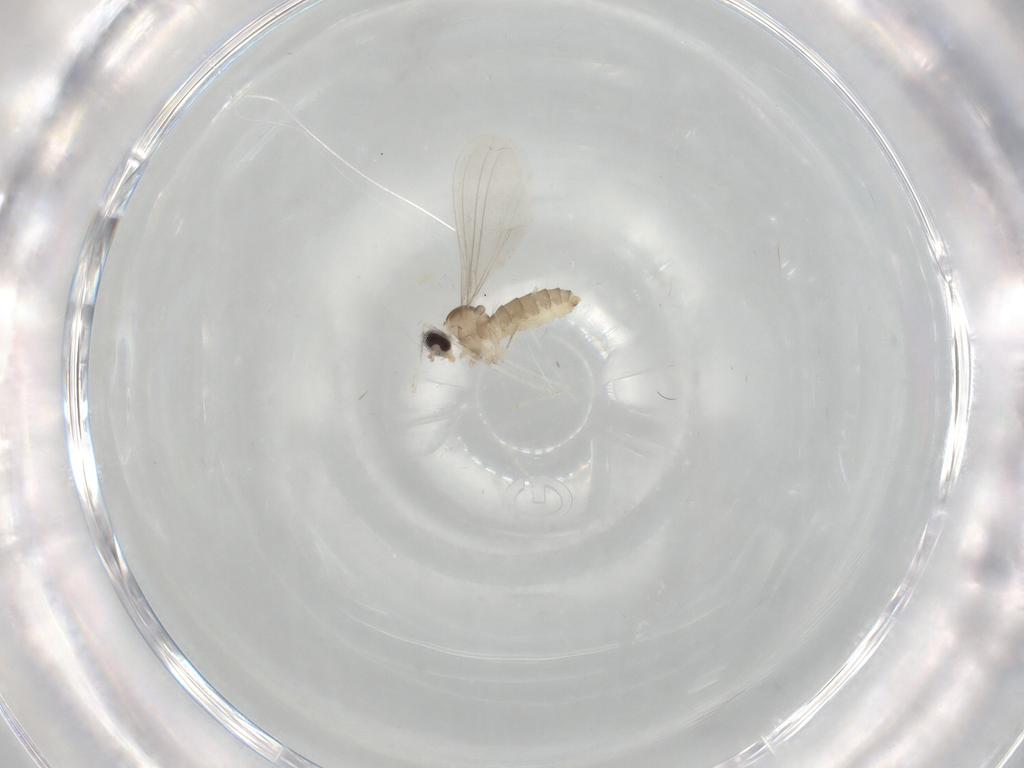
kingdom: Animalia
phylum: Arthropoda
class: Insecta
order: Diptera
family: Cecidomyiidae
